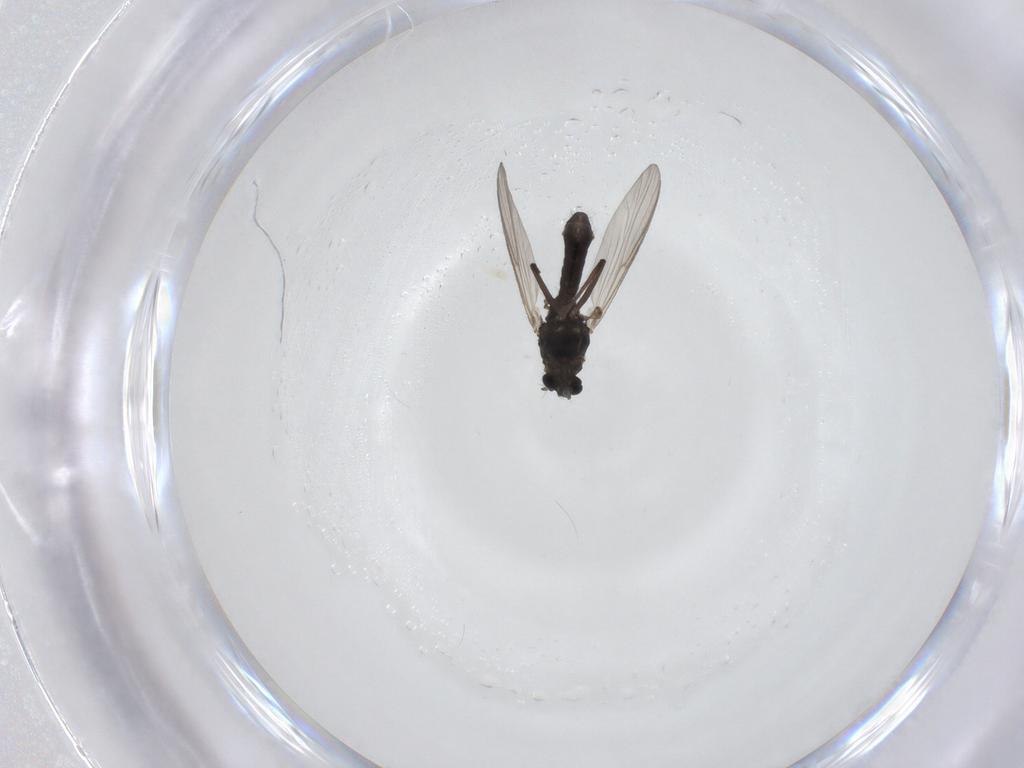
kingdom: Animalia
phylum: Arthropoda
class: Insecta
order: Diptera
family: Chironomidae
